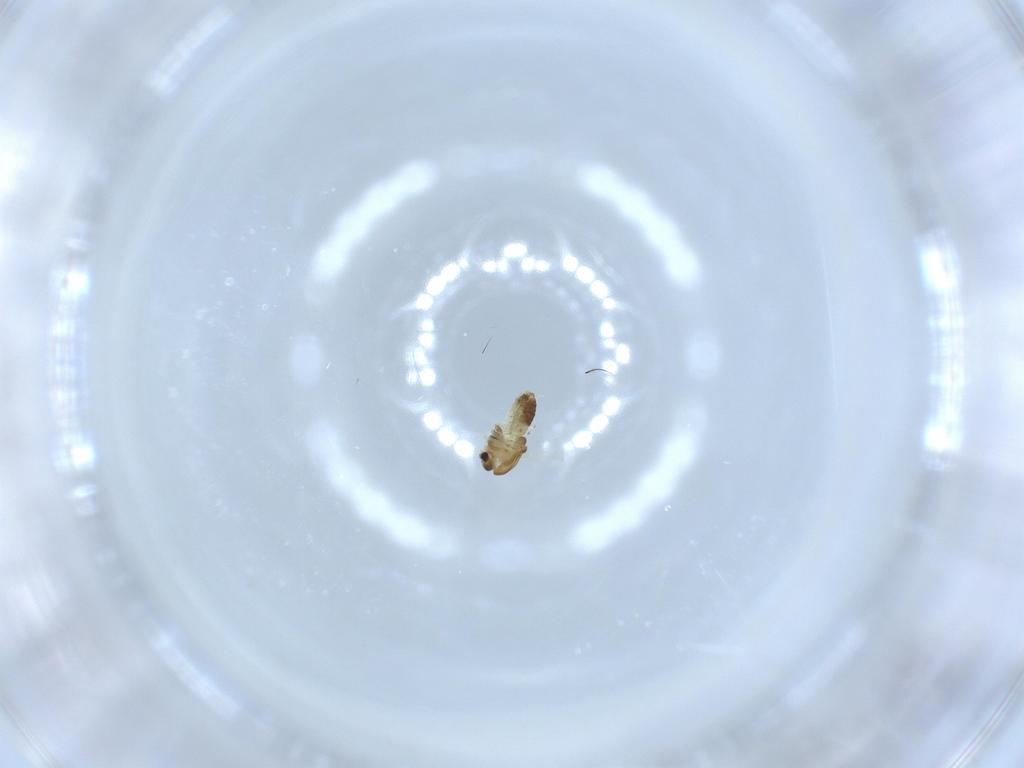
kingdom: Animalia
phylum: Arthropoda
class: Insecta
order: Diptera
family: Chironomidae
